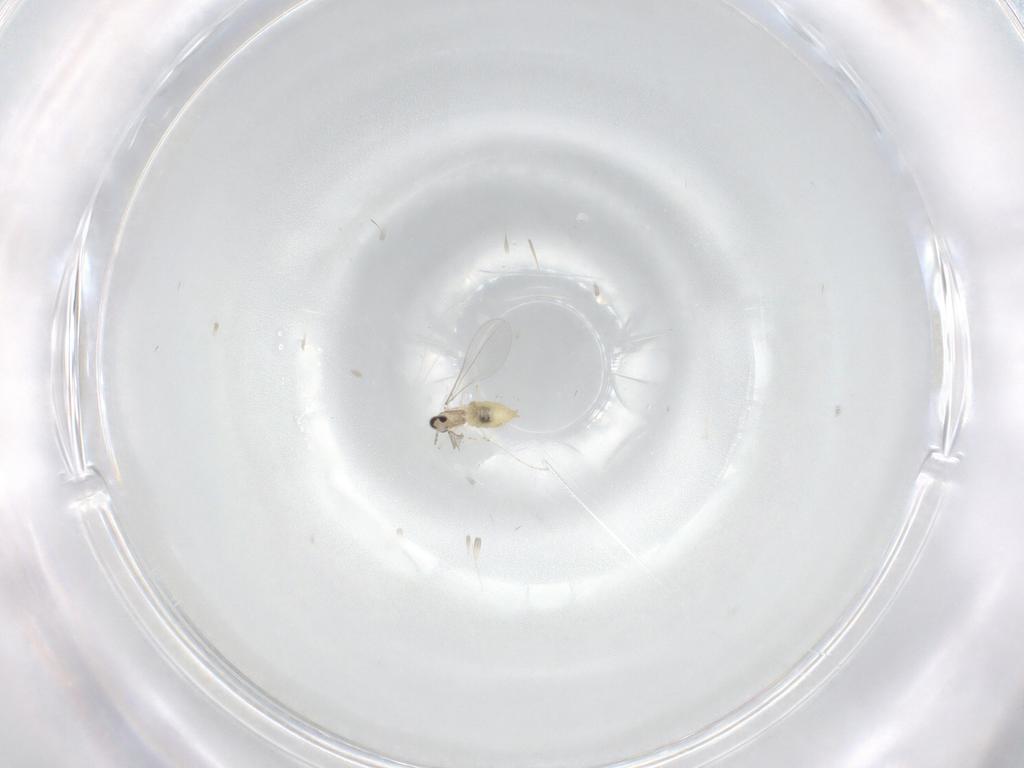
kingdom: Animalia
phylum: Arthropoda
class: Insecta
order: Diptera
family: Cecidomyiidae
